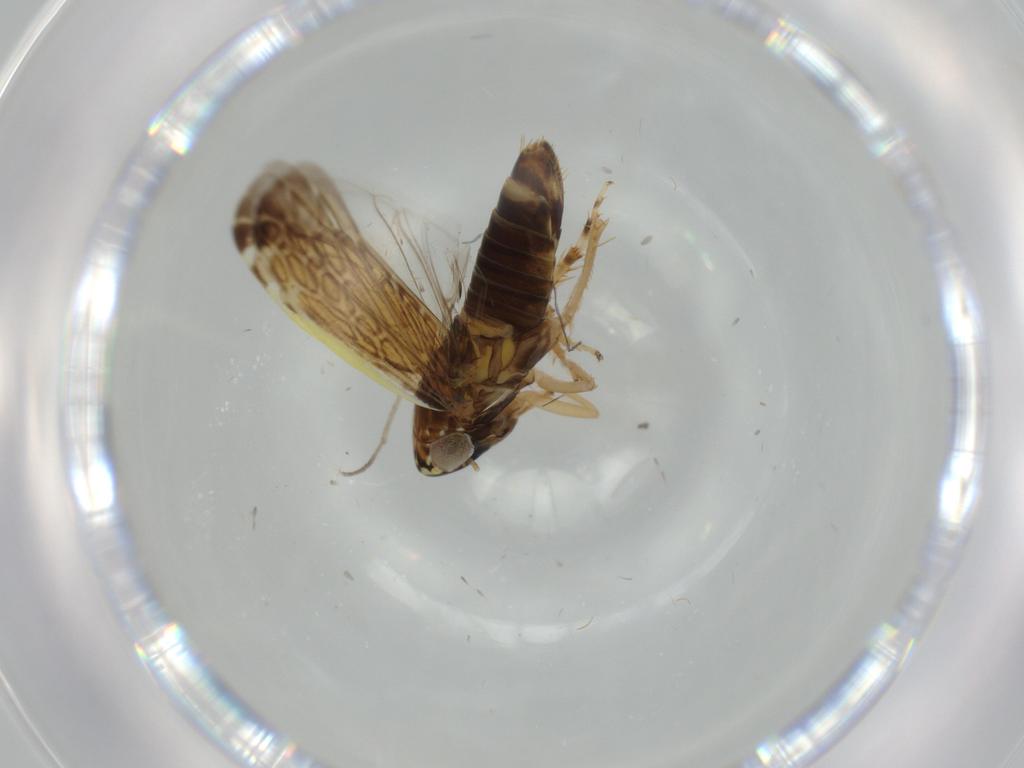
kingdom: Animalia
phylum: Arthropoda
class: Insecta
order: Hemiptera
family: Cicadellidae
